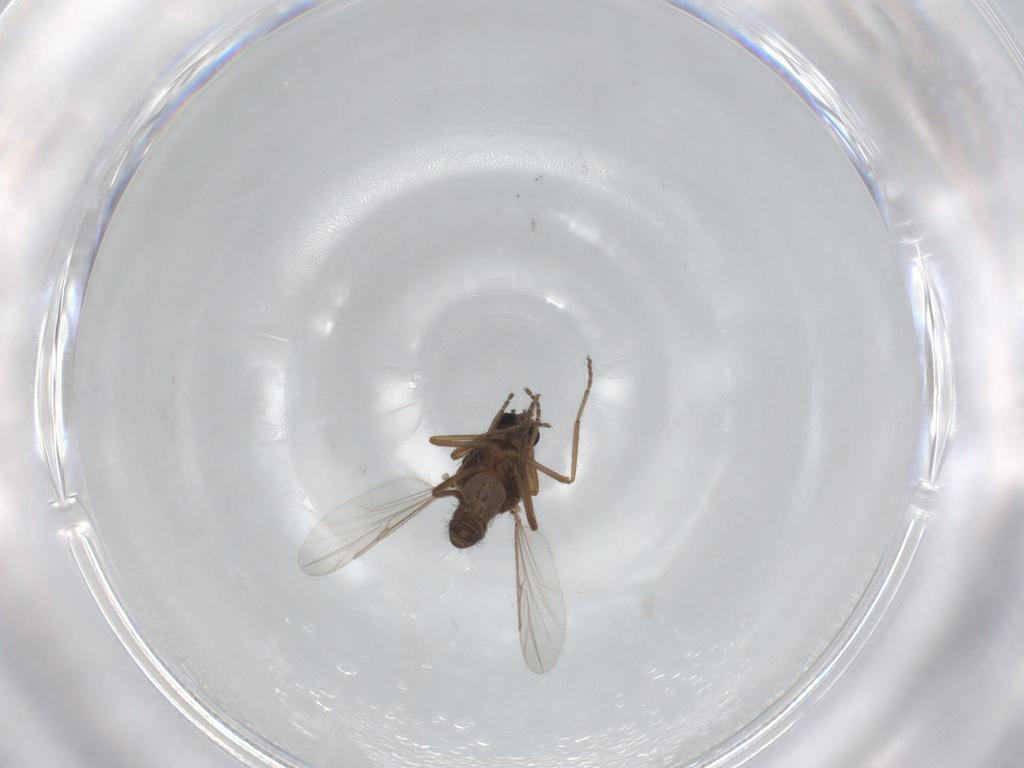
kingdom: Animalia
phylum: Arthropoda
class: Insecta
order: Diptera
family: Ceratopogonidae
